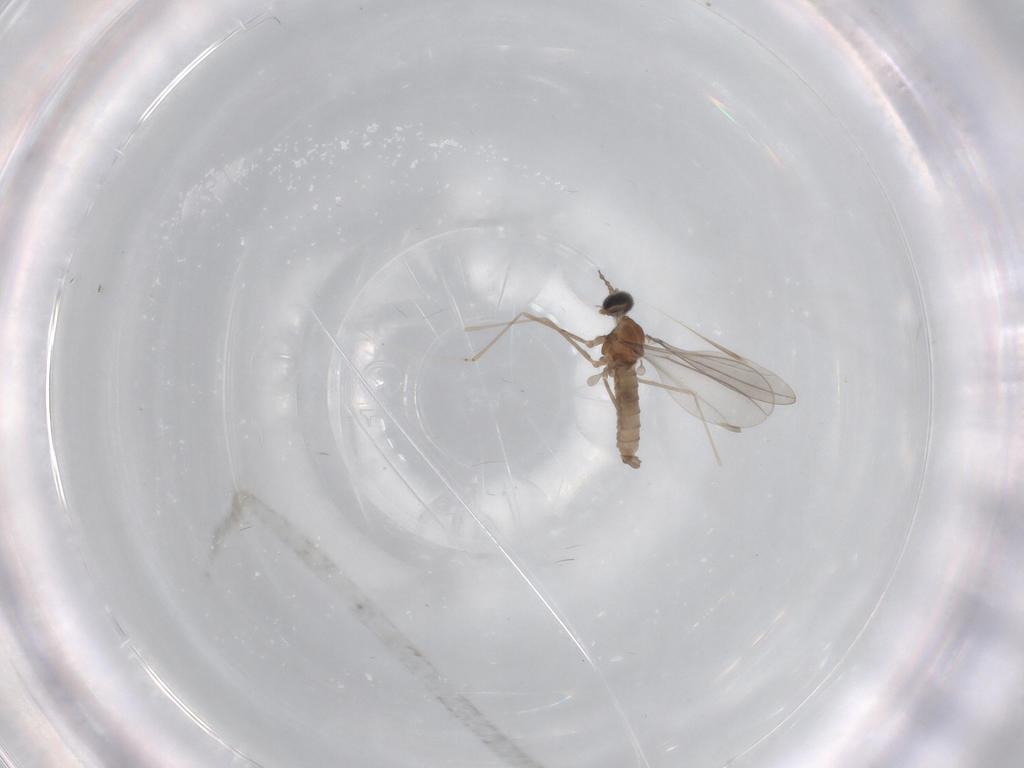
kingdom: Animalia
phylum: Arthropoda
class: Insecta
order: Diptera
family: Cecidomyiidae
